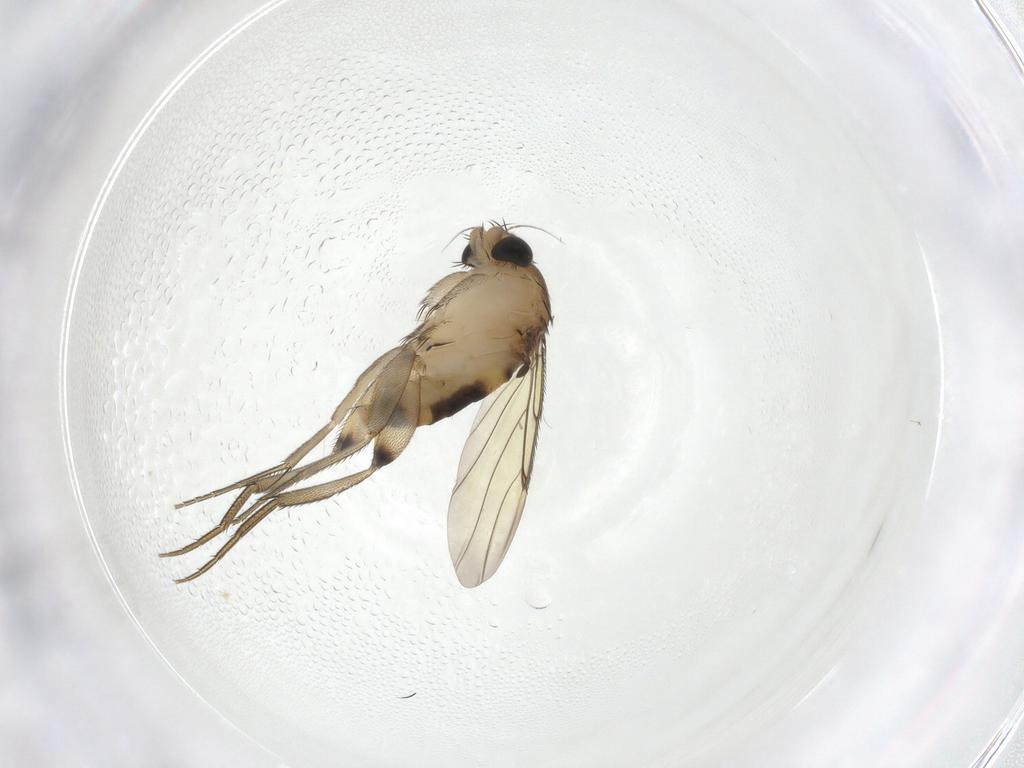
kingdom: Animalia
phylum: Arthropoda
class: Insecta
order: Diptera
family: Phoridae
